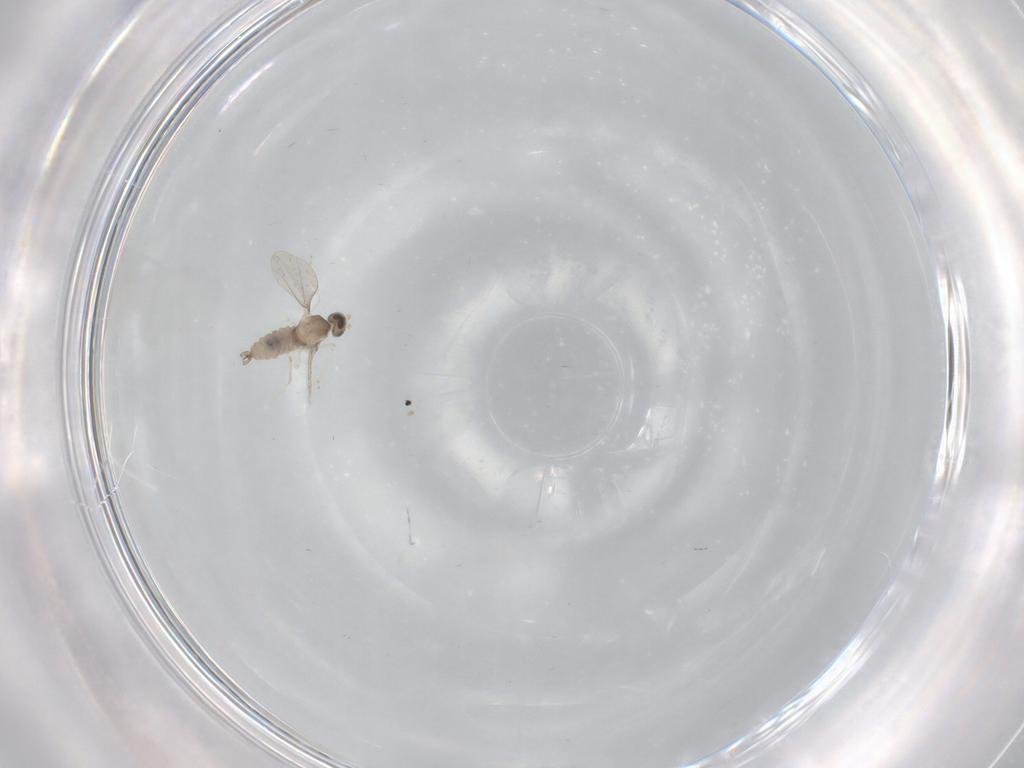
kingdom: Animalia
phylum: Arthropoda
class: Insecta
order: Diptera
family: Cecidomyiidae
